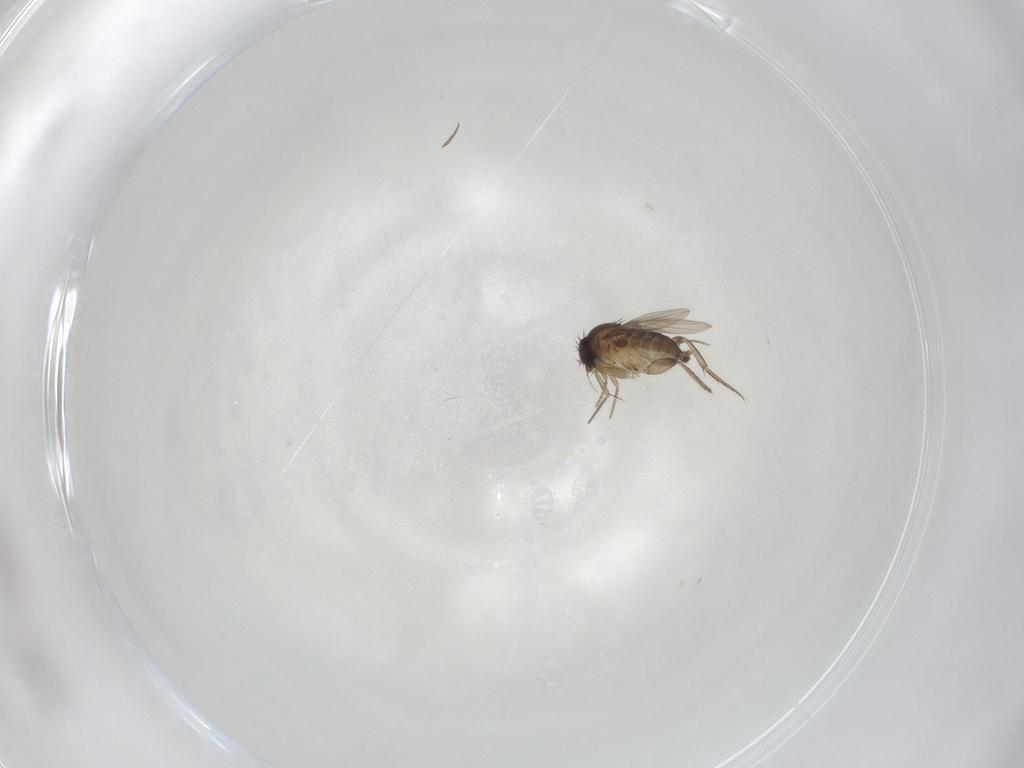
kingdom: Animalia
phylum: Arthropoda
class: Insecta
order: Diptera
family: Phoridae
